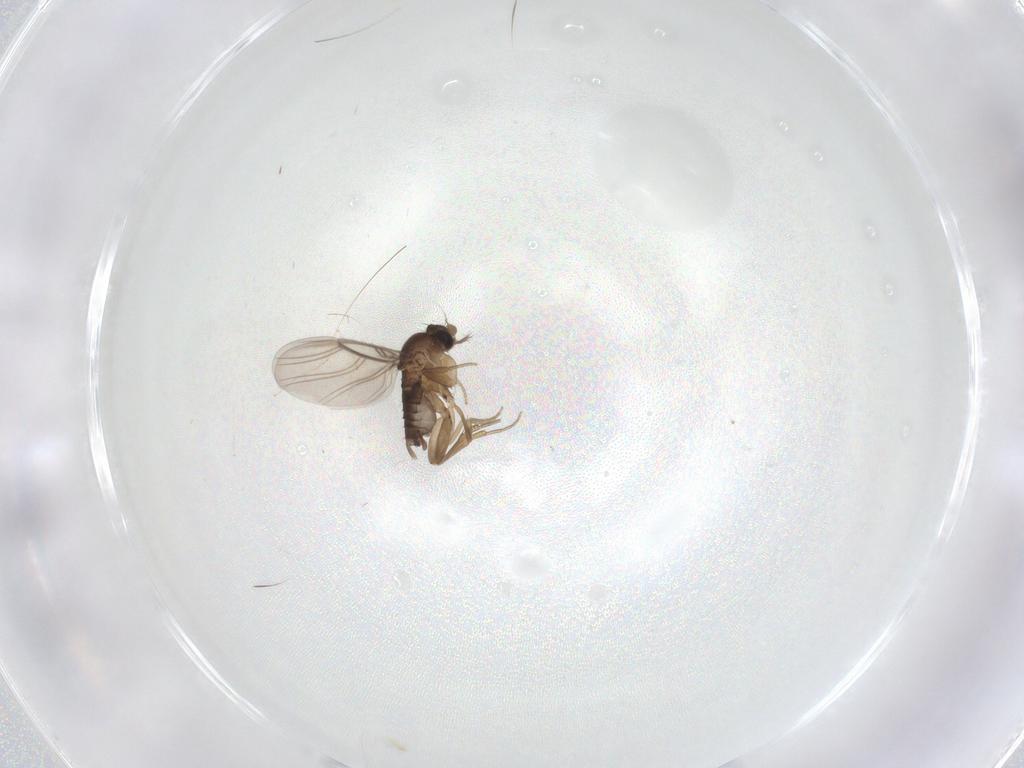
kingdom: Animalia
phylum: Arthropoda
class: Insecta
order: Diptera
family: Phoridae
